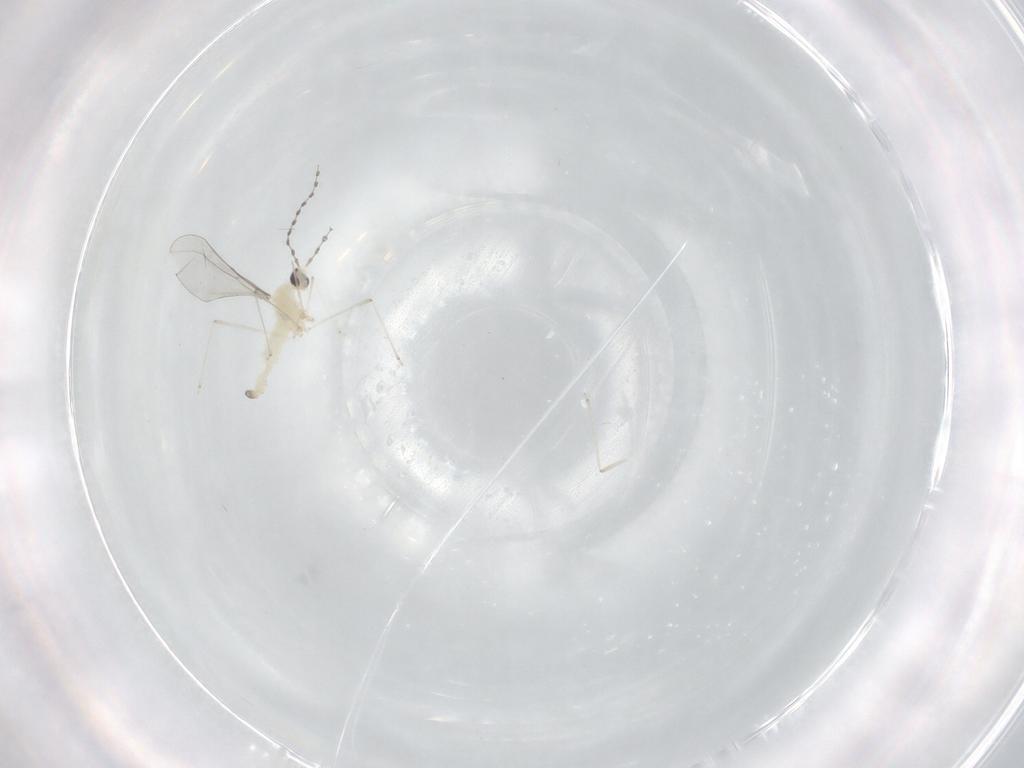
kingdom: Animalia
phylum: Arthropoda
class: Insecta
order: Diptera
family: Cecidomyiidae
